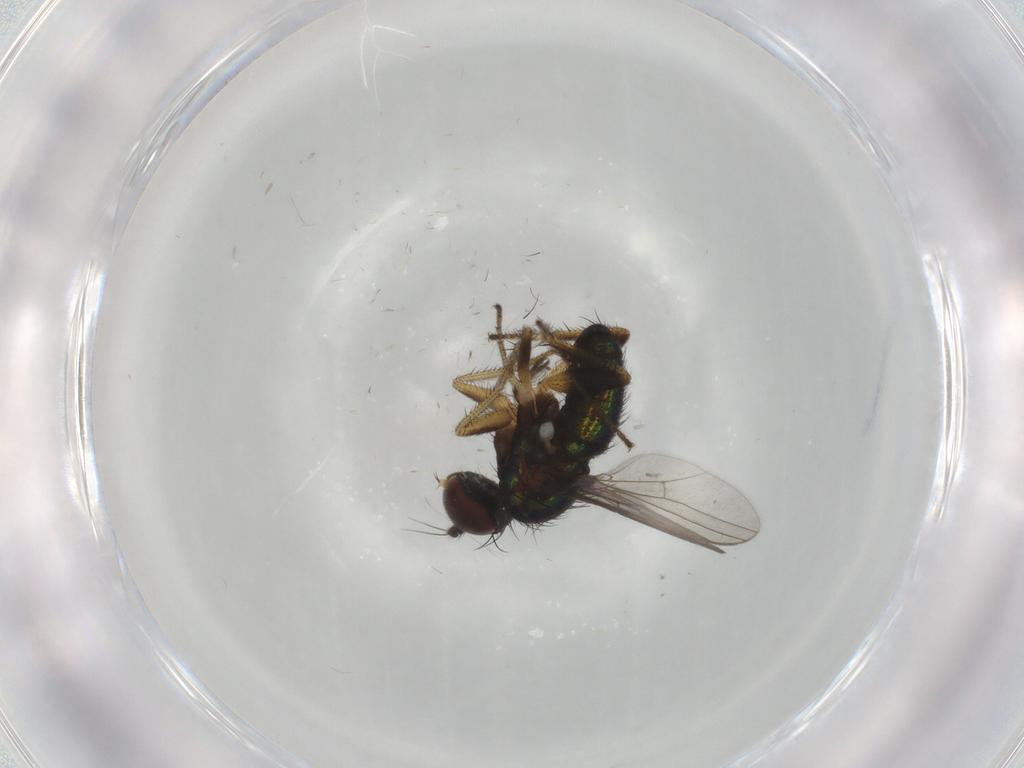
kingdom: Animalia
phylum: Arthropoda
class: Insecta
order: Diptera
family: Dolichopodidae
